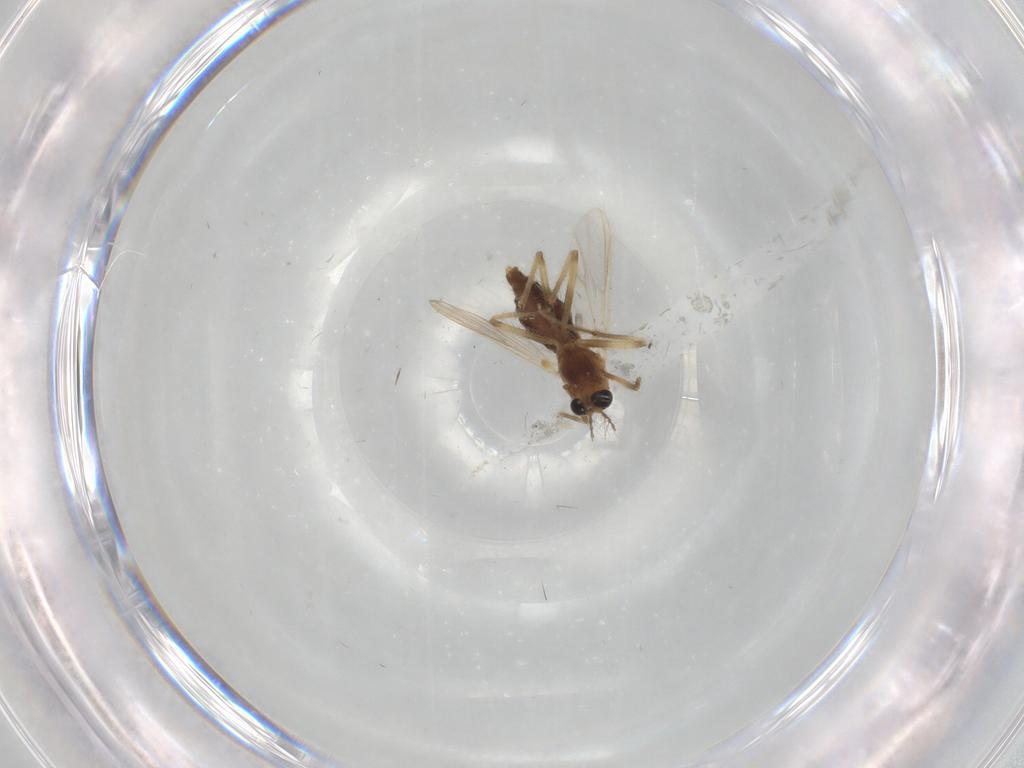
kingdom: Animalia
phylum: Arthropoda
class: Insecta
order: Diptera
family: Chironomidae
